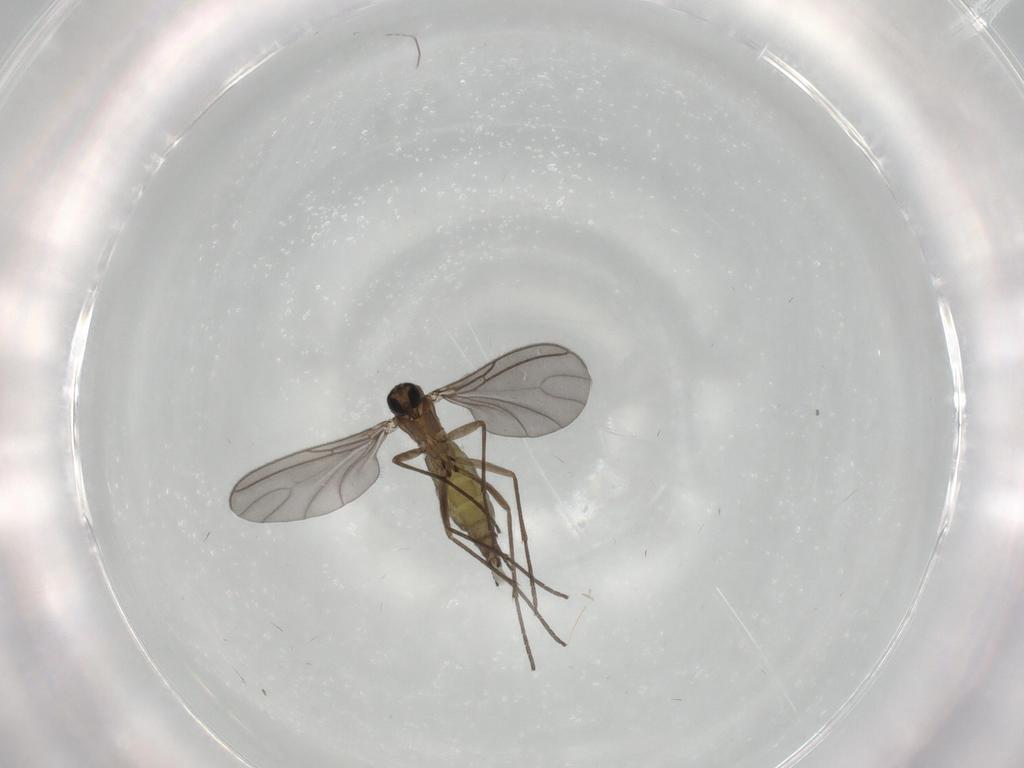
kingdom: Animalia
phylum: Arthropoda
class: Insecta
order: Diptera
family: Sciaridae
